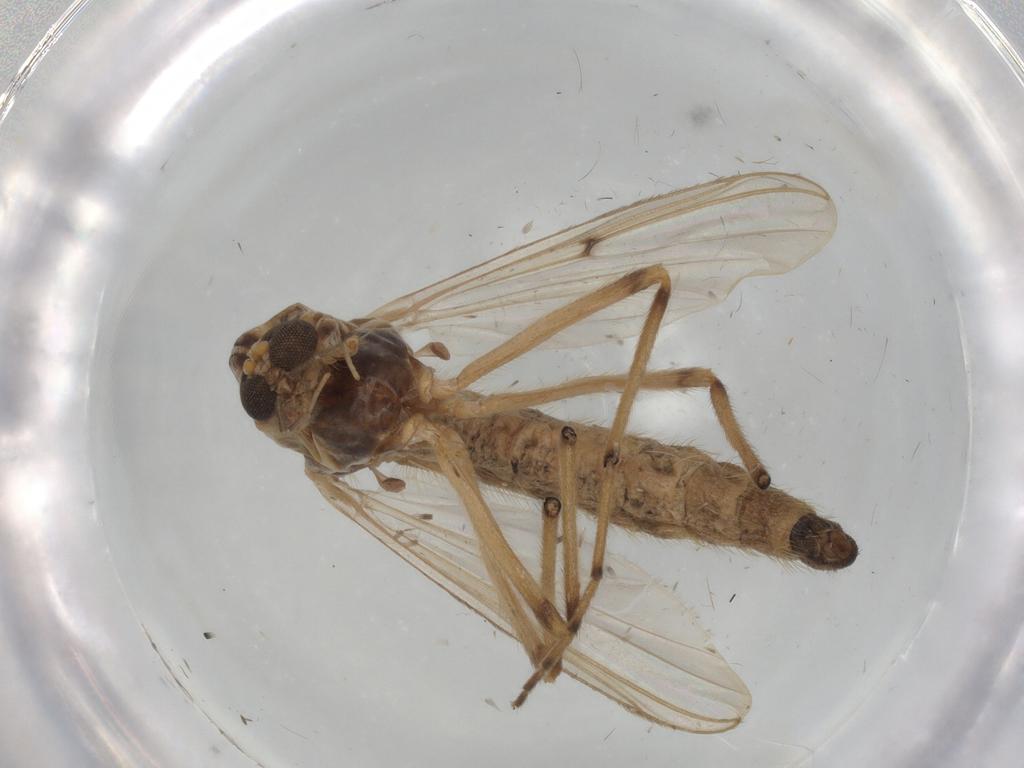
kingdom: Animalia
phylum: Arthropoda
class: Insecta
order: Diptera
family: Chironomidae
